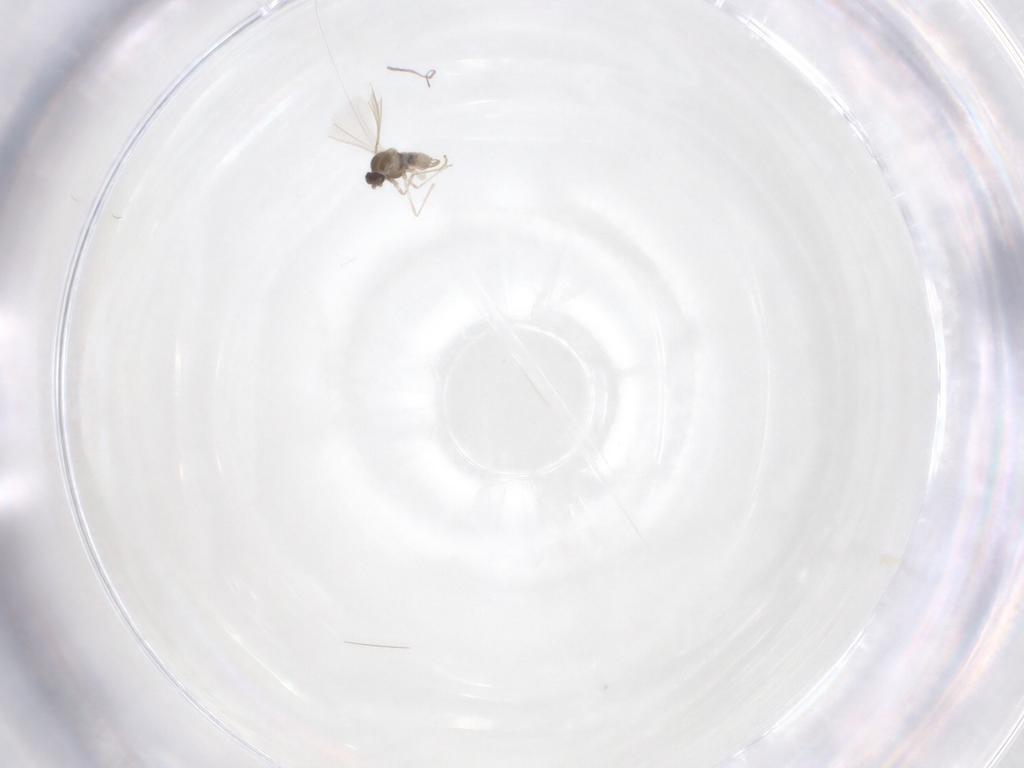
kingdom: Animalia
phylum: Arthropoda
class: Insecta
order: Diptera
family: Cecidomyiidae
